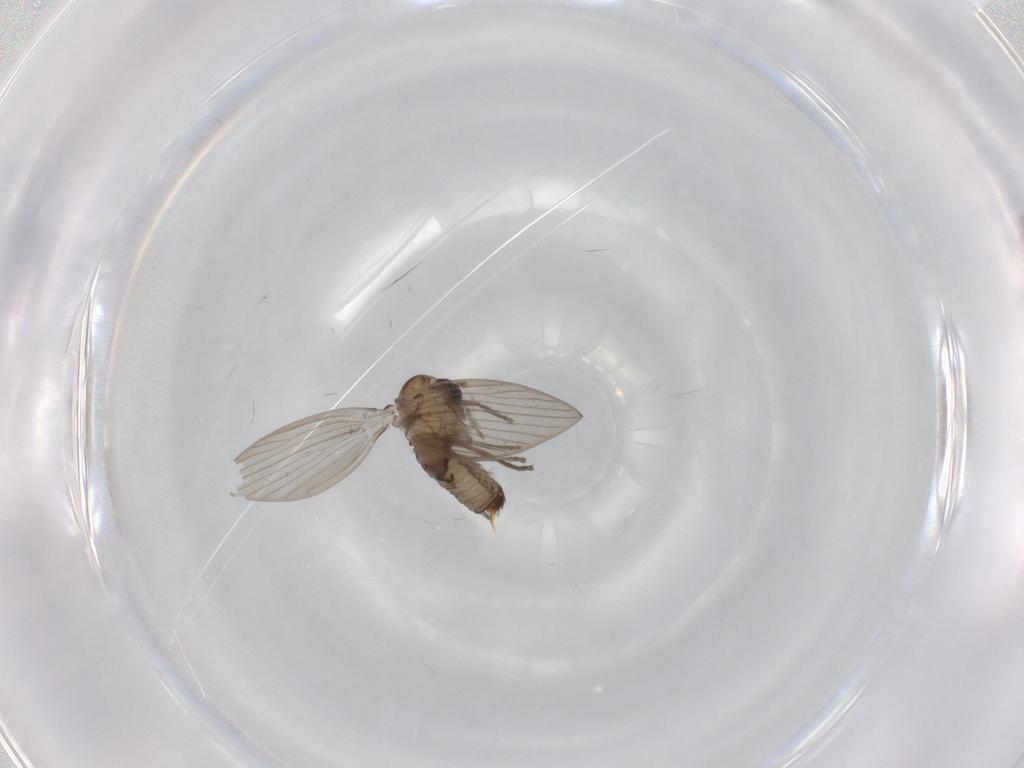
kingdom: Animalia
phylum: Arthropoda
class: Insecta
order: Diptera
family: Psychodidae
